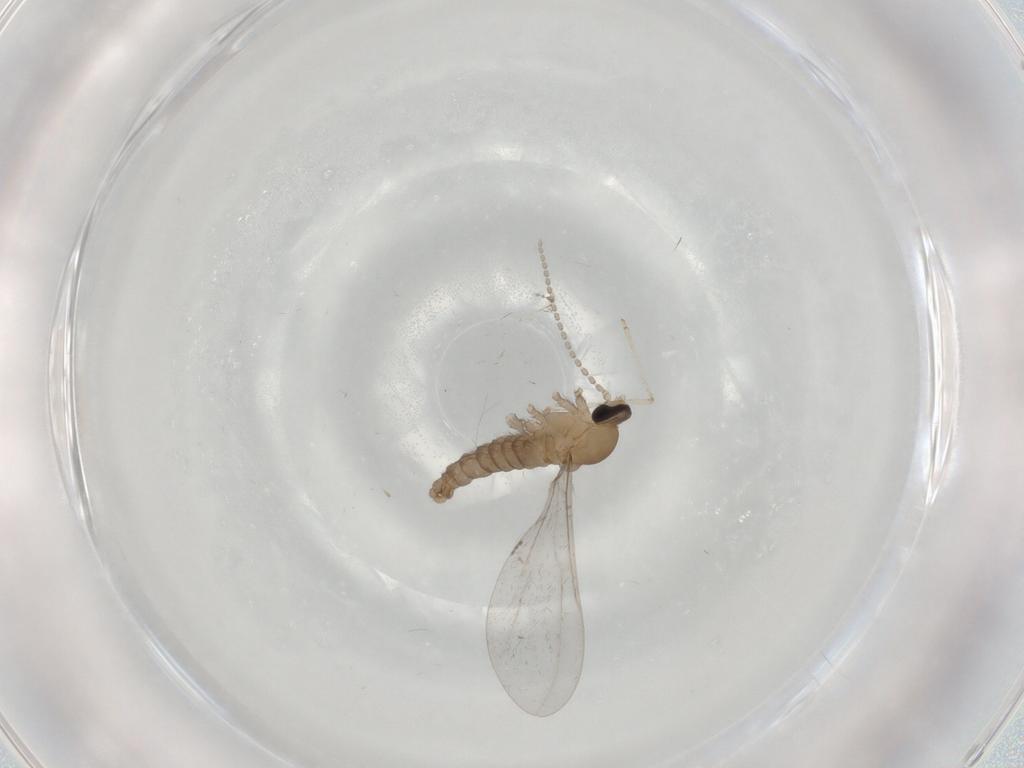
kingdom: Animalia
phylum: Arthropoda
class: Insecta
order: Diptera
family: Cecidomyiidae
